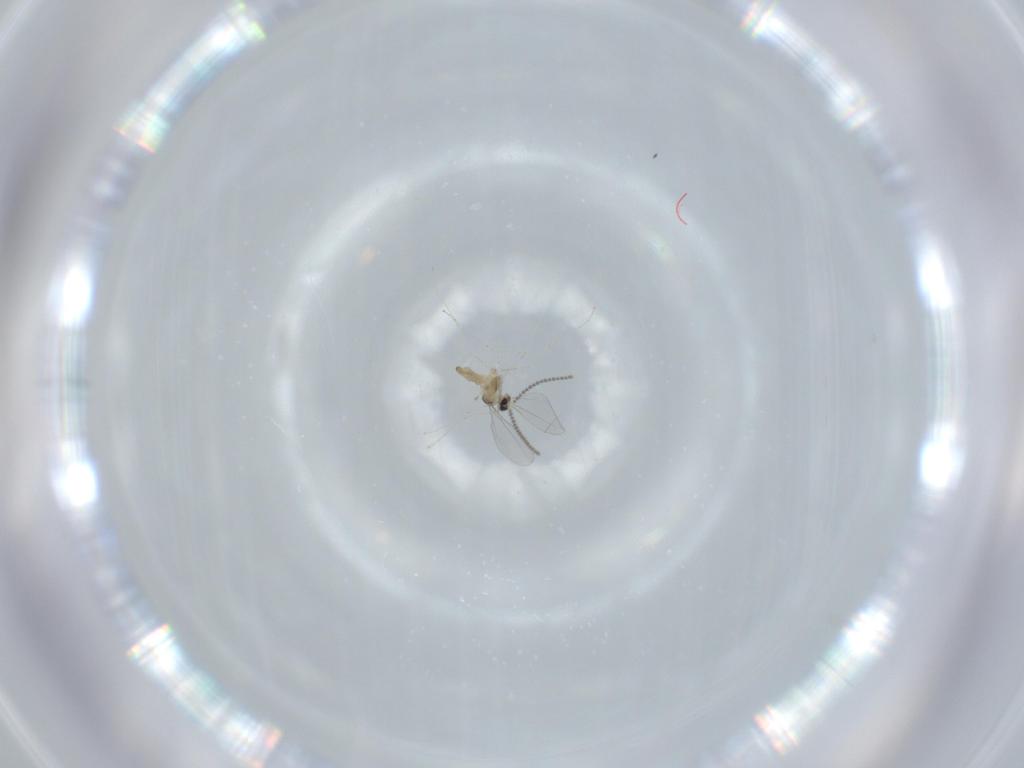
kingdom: Animalia
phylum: Arthropoda
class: Insecta
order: Diptera
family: Cecidomyiidae
